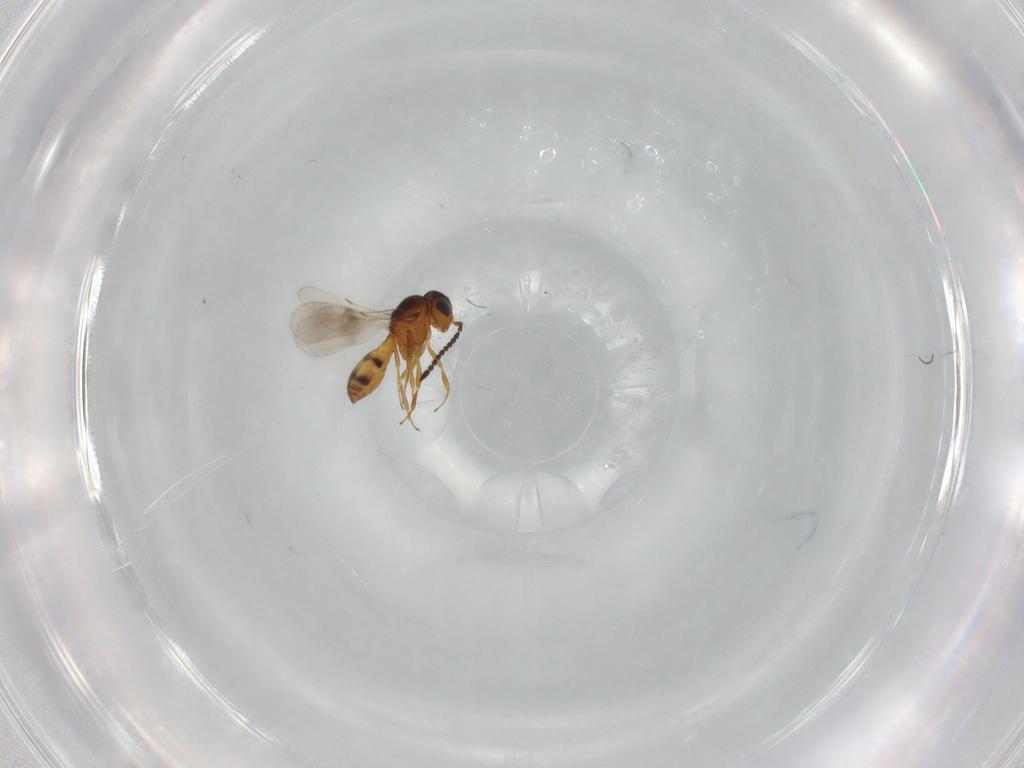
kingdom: Animalia
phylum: Arthropoda
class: Insecta
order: Hymenoptera
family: Scelionidae
